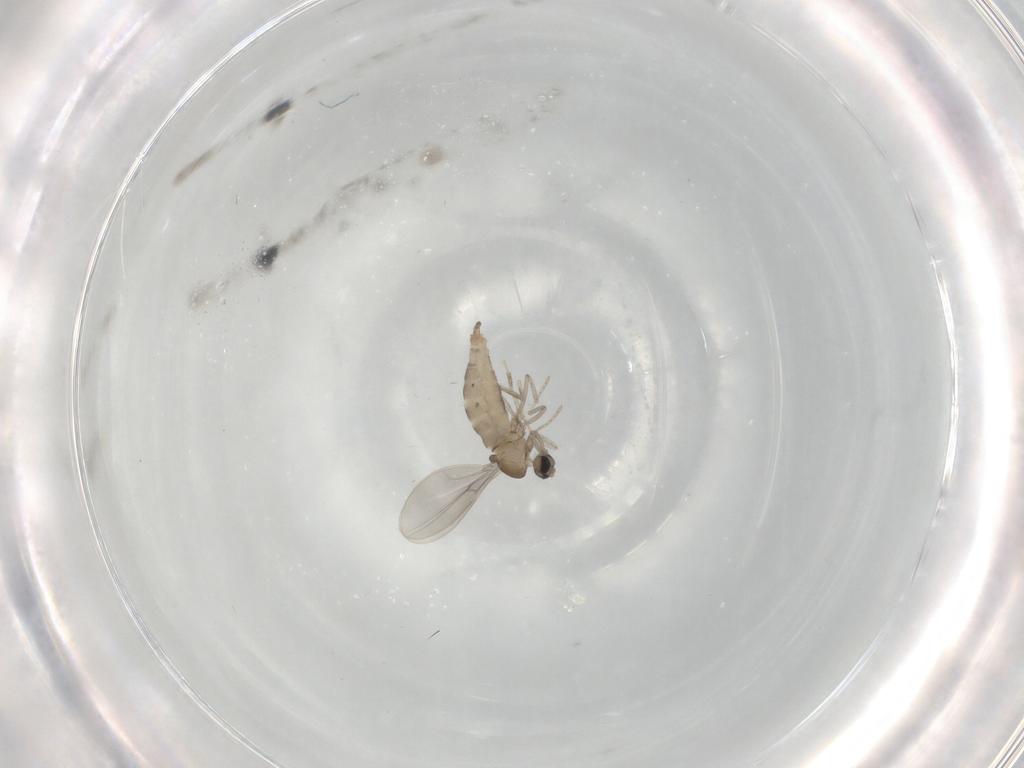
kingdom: Animalia
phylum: Arthropoda
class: Insecta
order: Diptera
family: Cecidomyiidae
